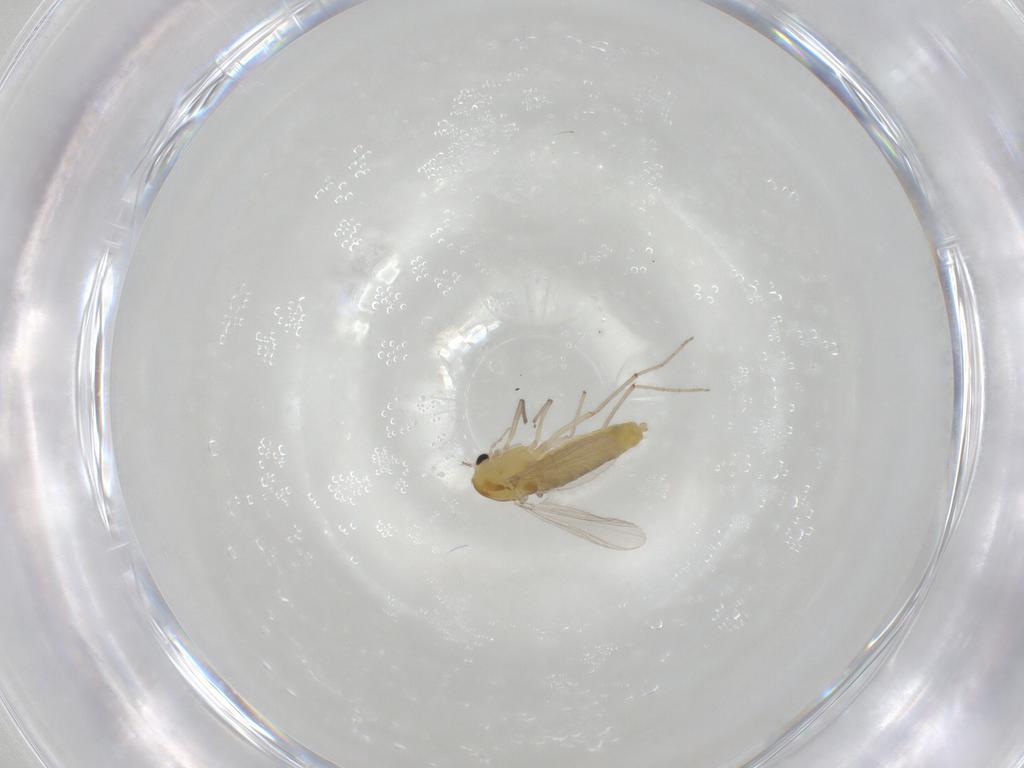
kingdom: Animalia
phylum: Arthropoda
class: Insecta
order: Diptera
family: Chironomidae
